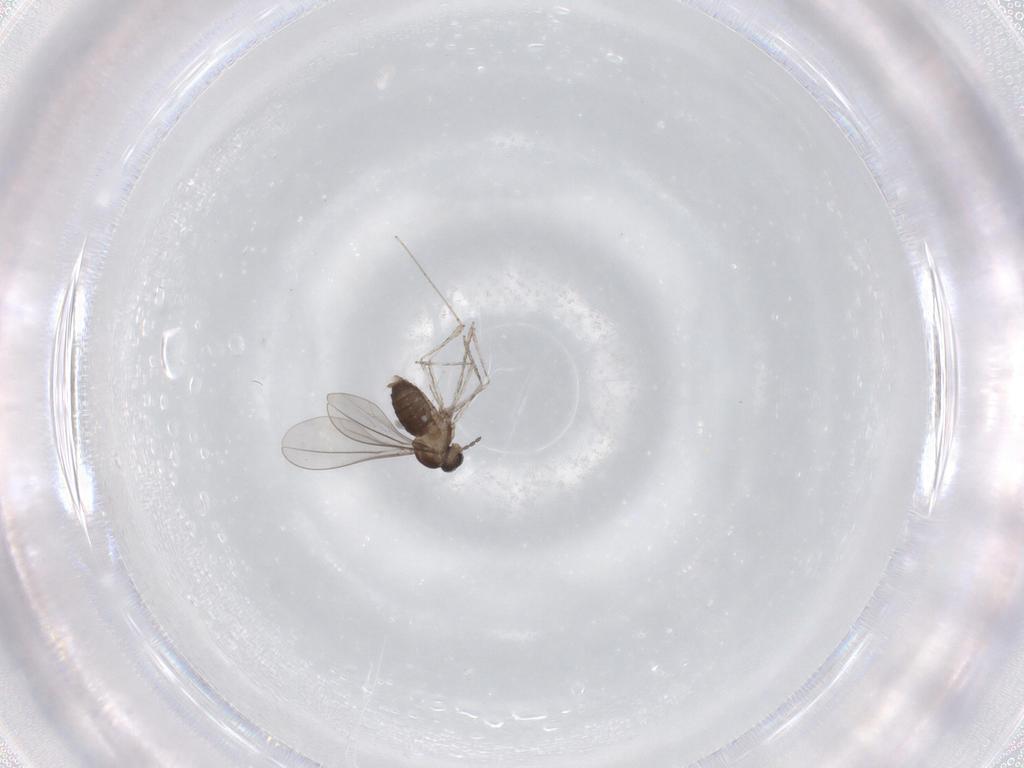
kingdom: Animalia
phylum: Arthropoda
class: Insecta
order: Diptera
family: Cecidomyiidae
